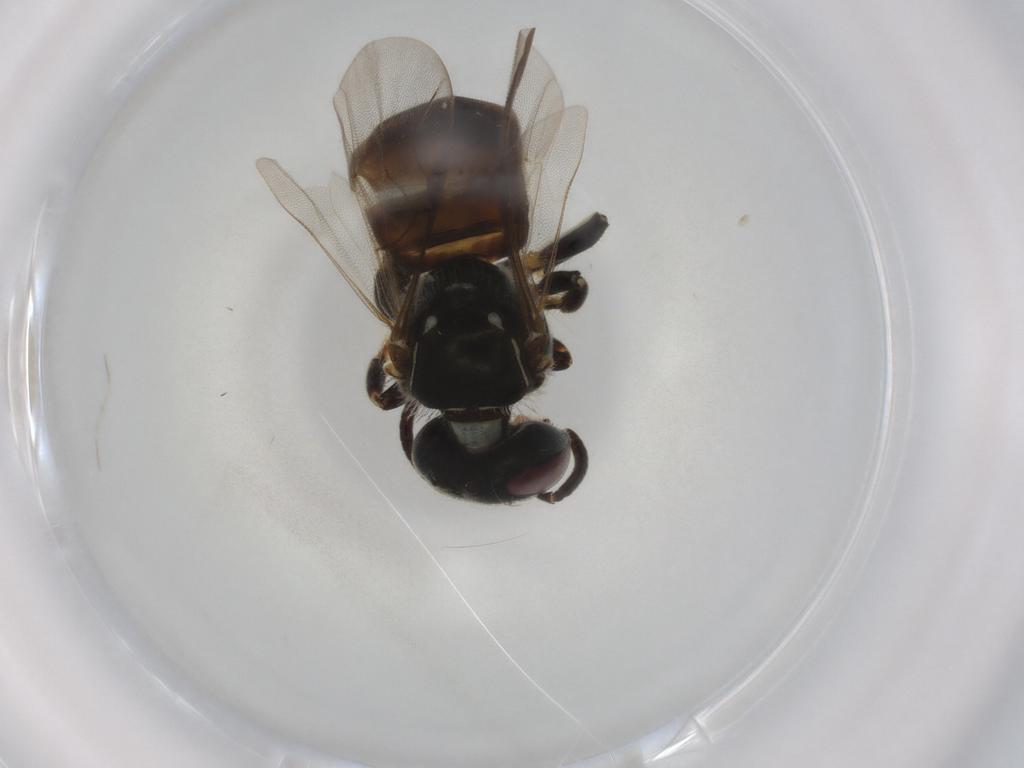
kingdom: Animalia
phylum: Arthropoda
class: Insecta
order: Hymenoptera
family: Apidae
